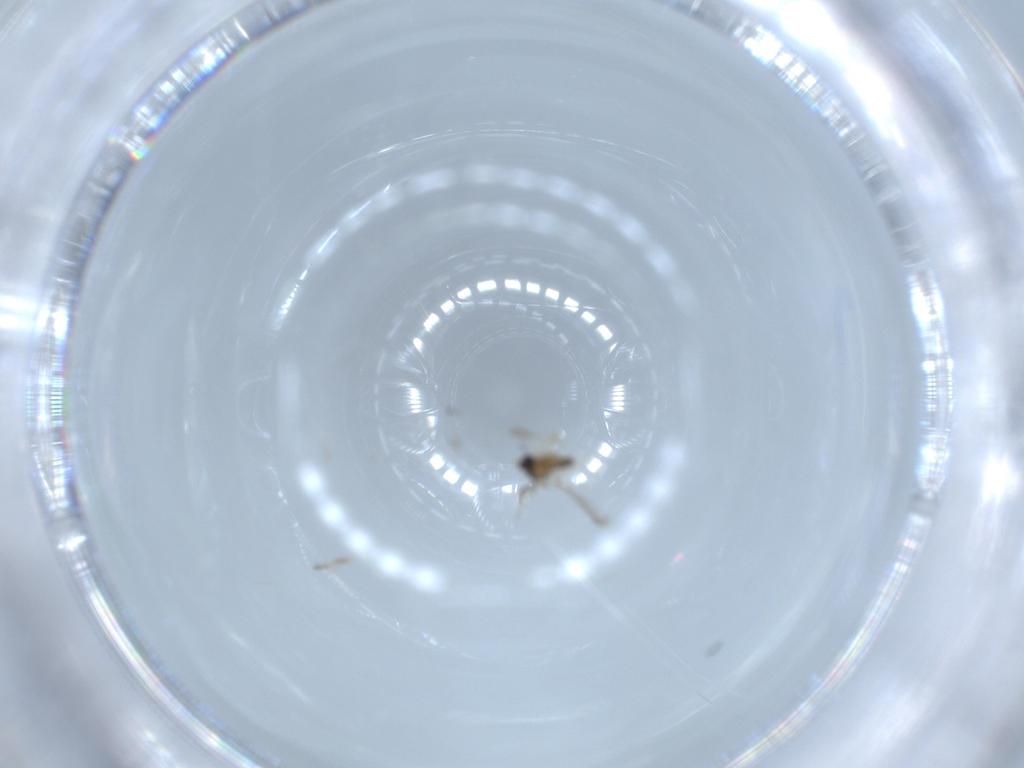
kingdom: Animalia
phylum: Arthropoda
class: Insecta
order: Diptera
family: Cecidomyiidae
